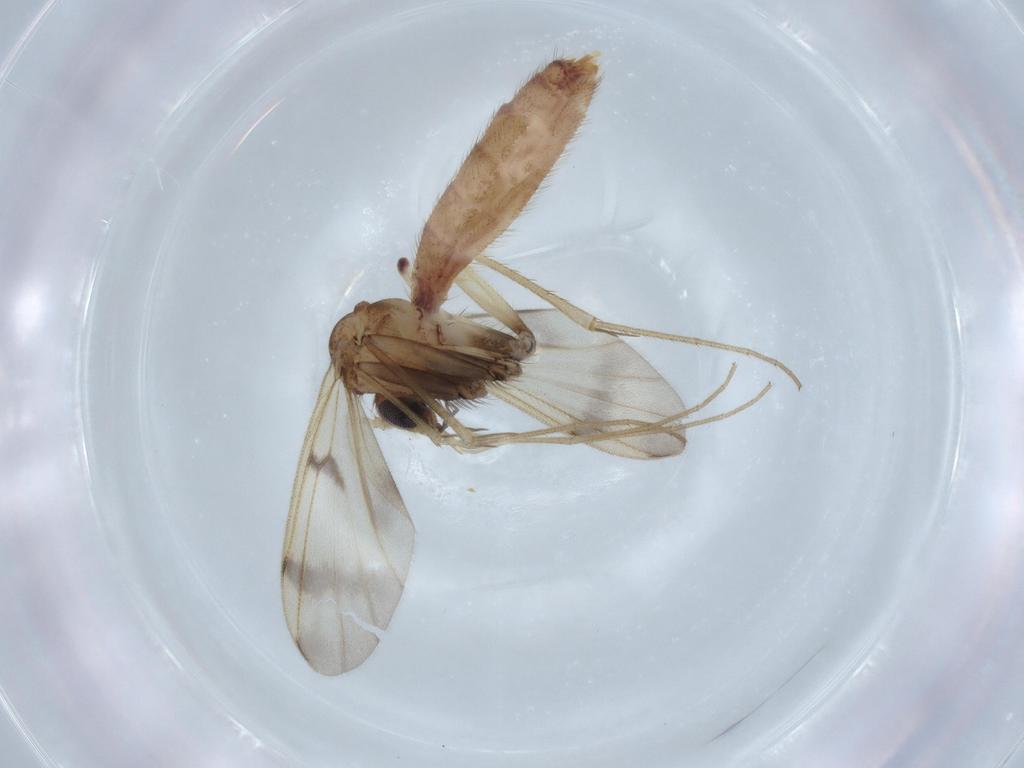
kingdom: Animalia
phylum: Arthropoda
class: Insecta
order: Diptera
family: Mycetophilidae
